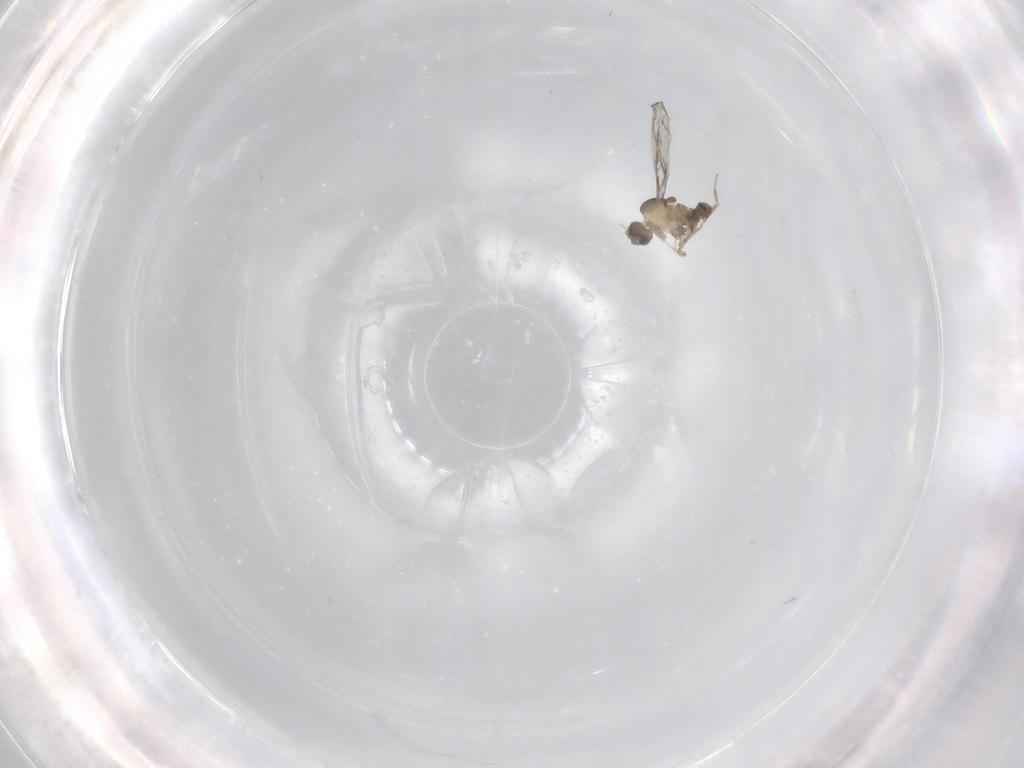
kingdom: Animalia
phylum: Arthropoda
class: Insecta
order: Diptera
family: Cecidomyiidae
